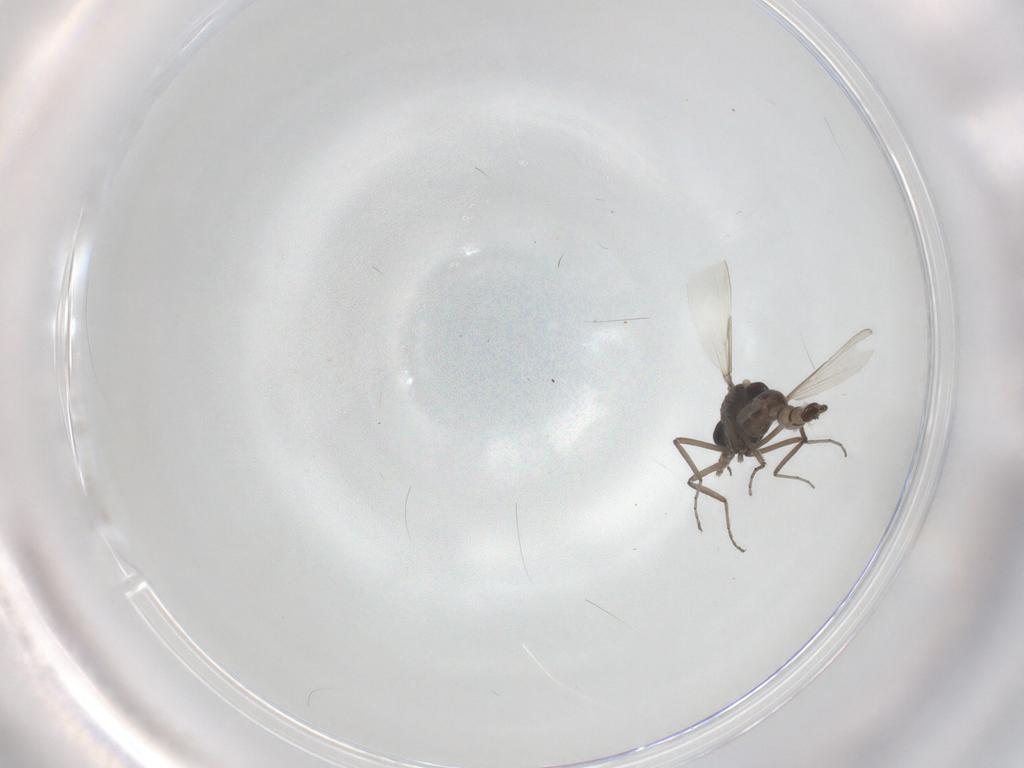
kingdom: Animalia
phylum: Arthropoda
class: Insecta
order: Diptera
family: Ceratopogonidae
